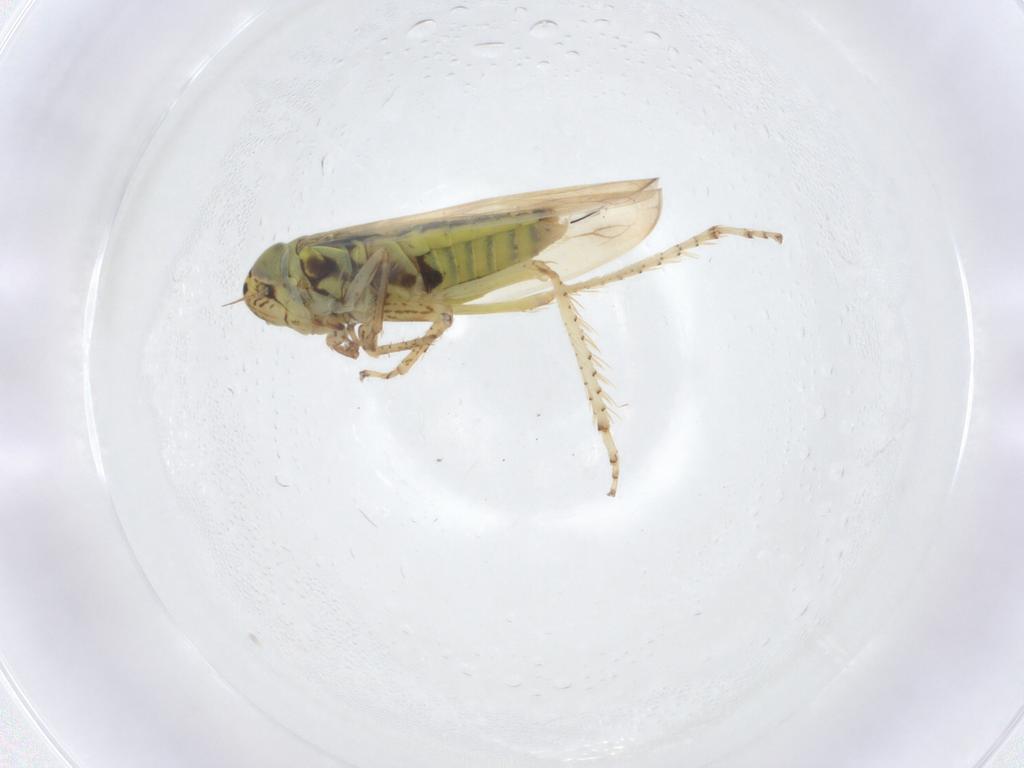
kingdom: Animalia
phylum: Arthropoda
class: Insecta
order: Hemiptera
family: Cicadellidae
